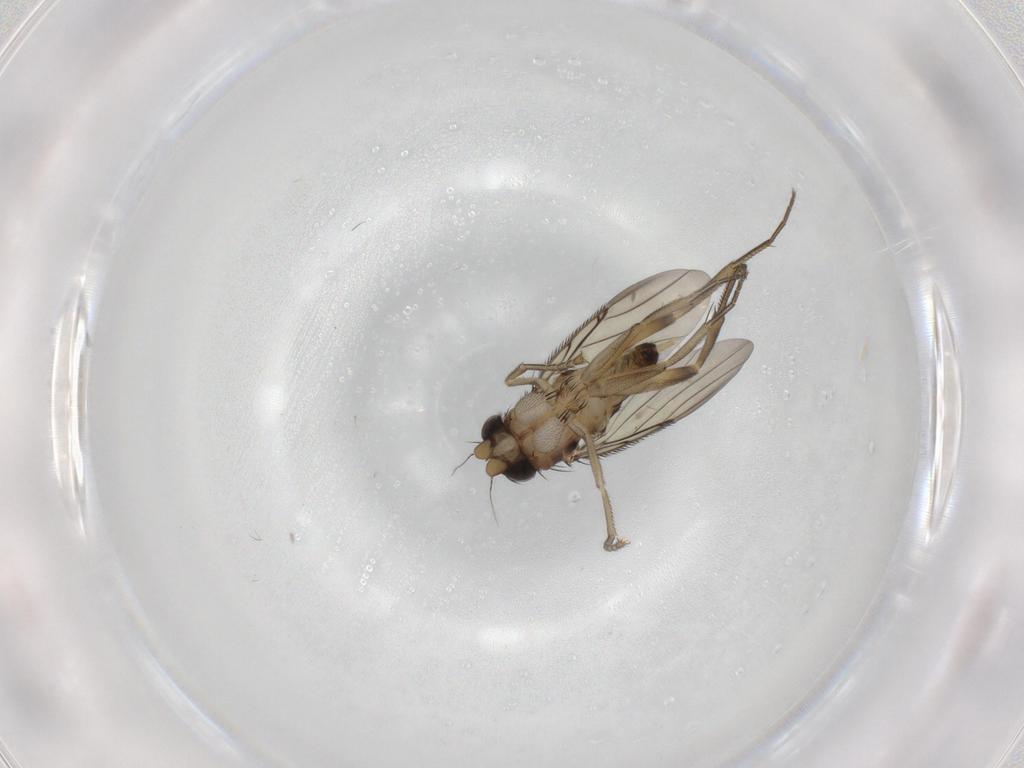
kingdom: Animalia
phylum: Arthropoda
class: Insecta
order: Diptera
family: Phoridae
